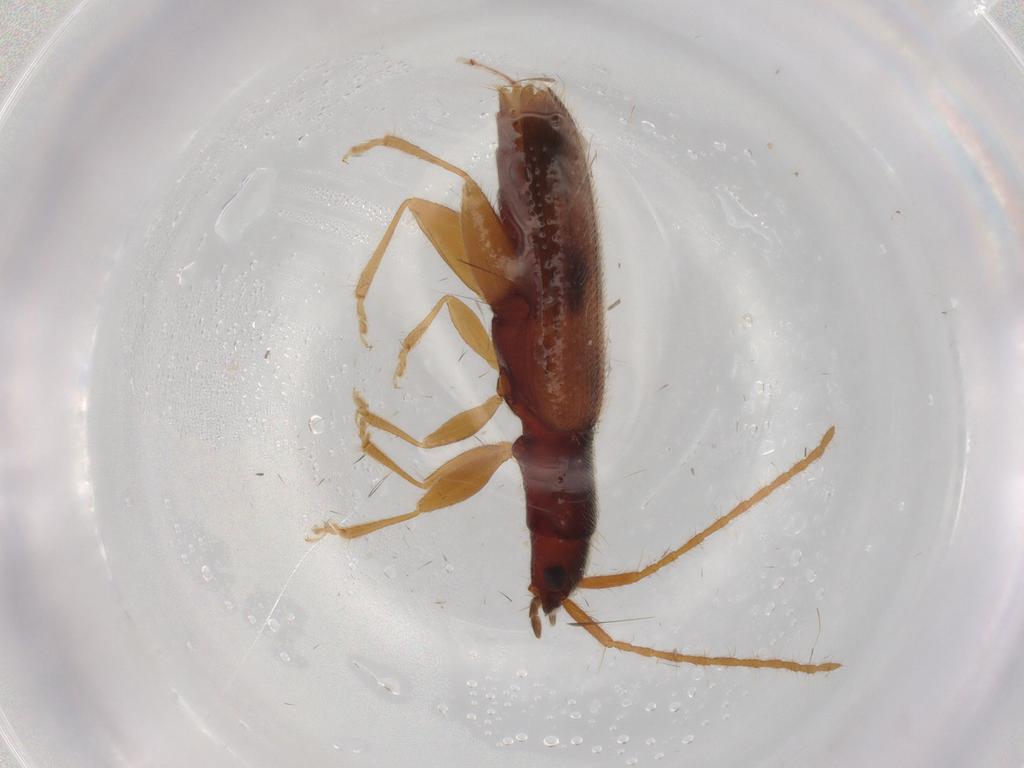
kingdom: Animalia
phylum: Arthropoda
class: Insecta
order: Coleoptera
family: Silvanidae
